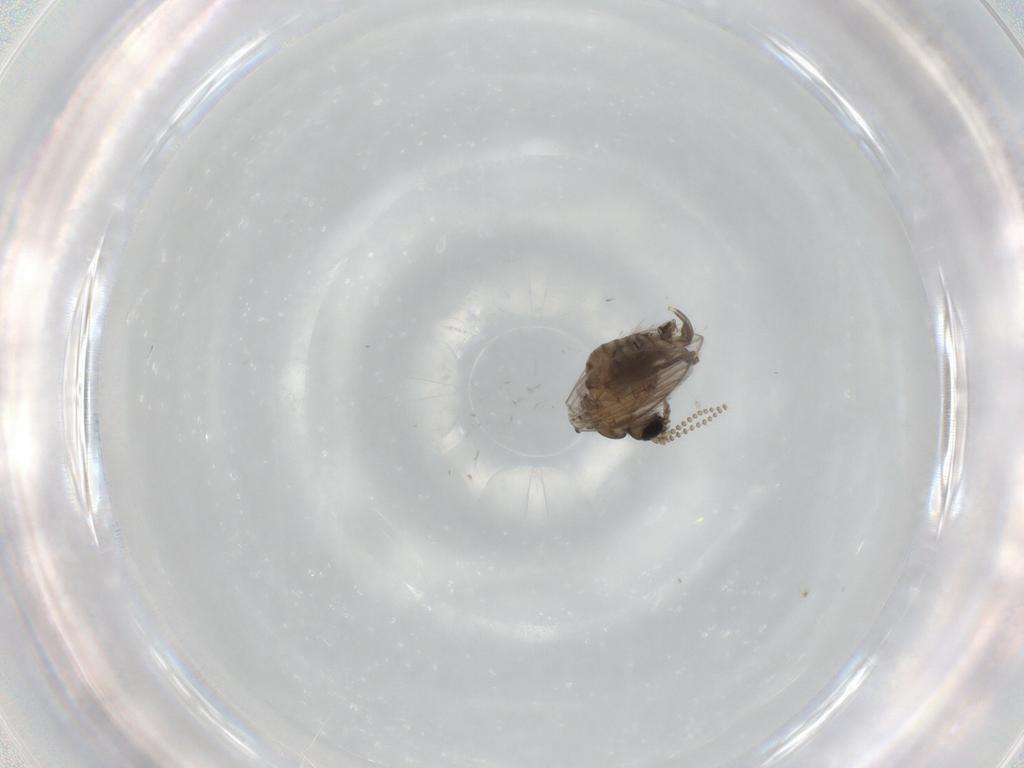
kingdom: Animalia
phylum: Arthropoda
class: Insecta
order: Diptera
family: Psychodidae
